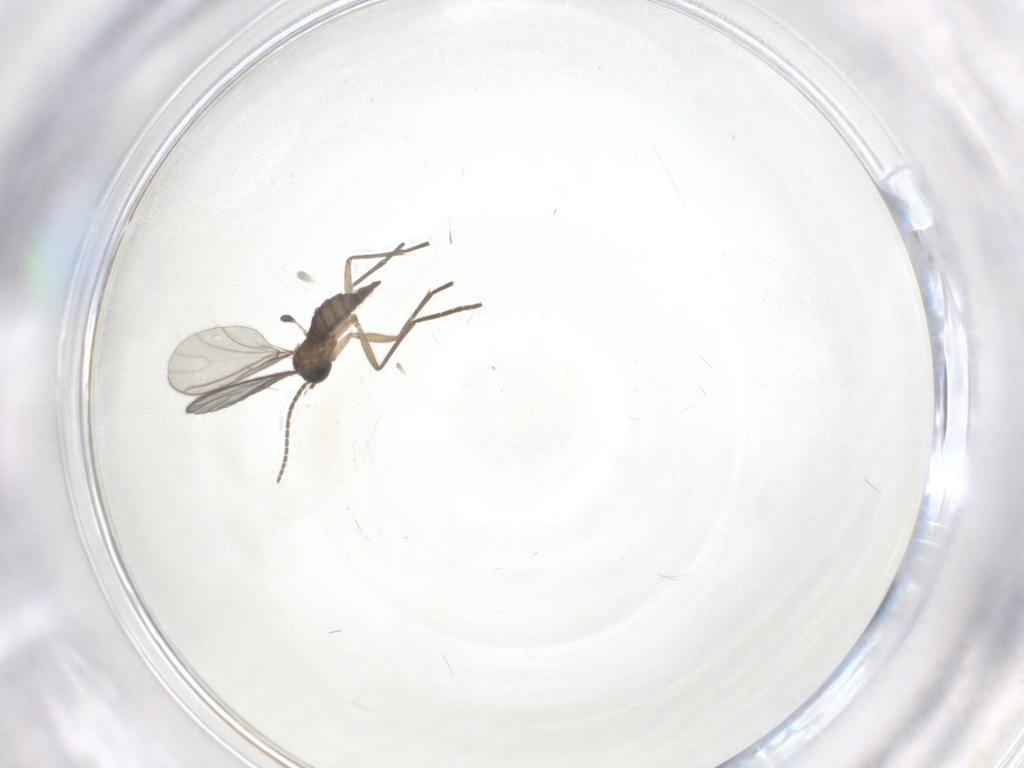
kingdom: Animalia
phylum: Arthropoda
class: Insecta
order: Diptera
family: Sciaridae
